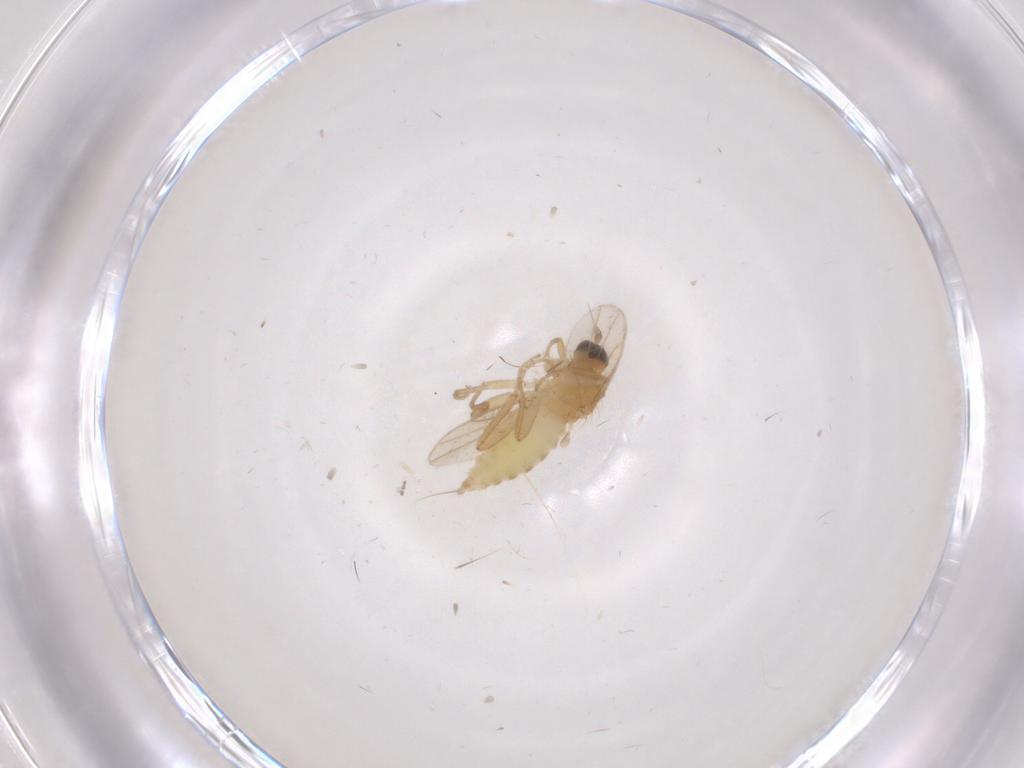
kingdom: Animalia
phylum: Arthropoda
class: Insecta
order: Diptera
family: Hybotidae
